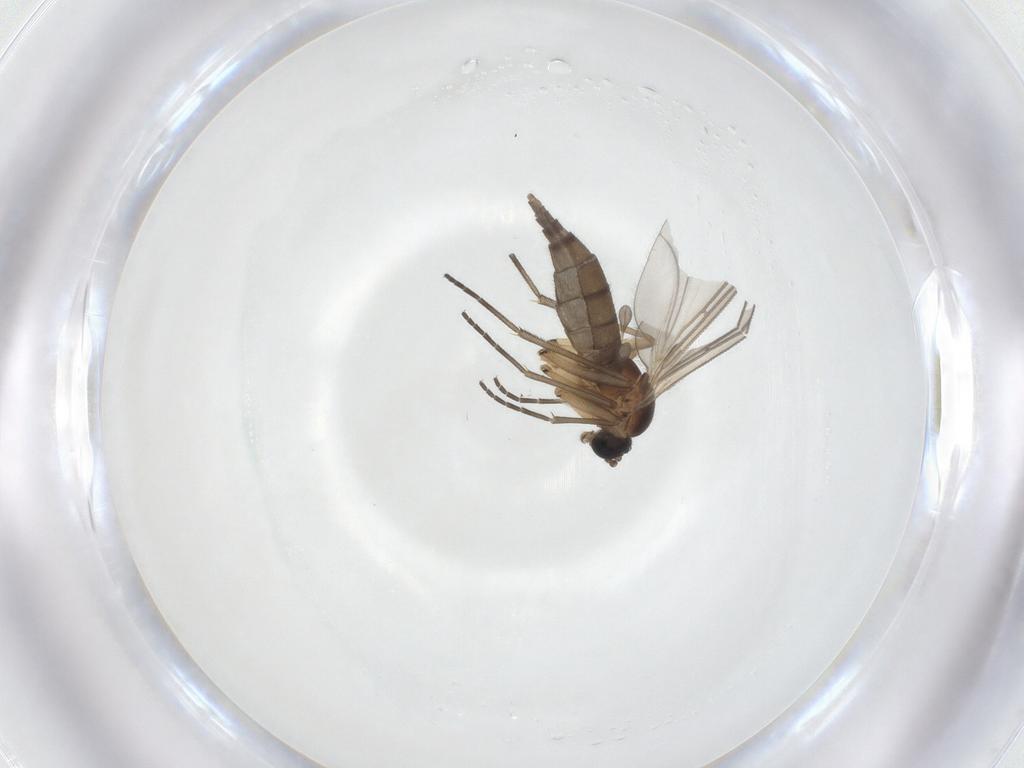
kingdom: Animalia
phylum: Arthropoda
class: Insecta
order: Diptera
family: Sciaridae
